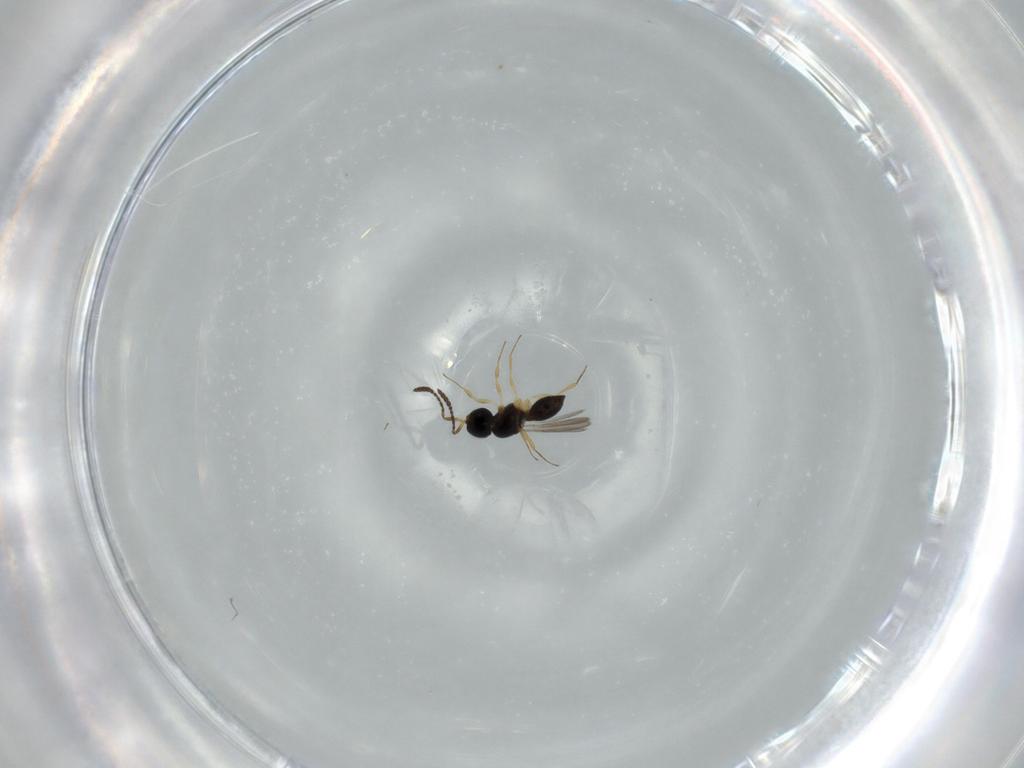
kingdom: Animalia
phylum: Arthropoda
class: Insecta
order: Hymenoptera
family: Scelionidae
